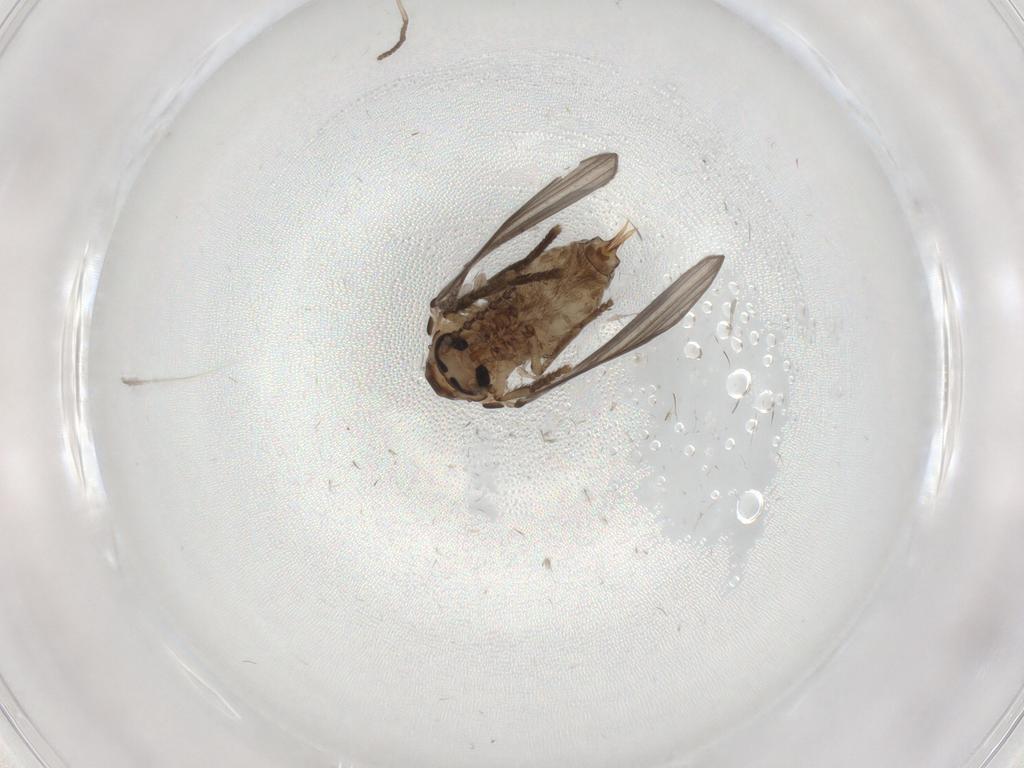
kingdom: Animalia
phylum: Arthropoda
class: Insecta
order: Diptera
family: Psychodidae
